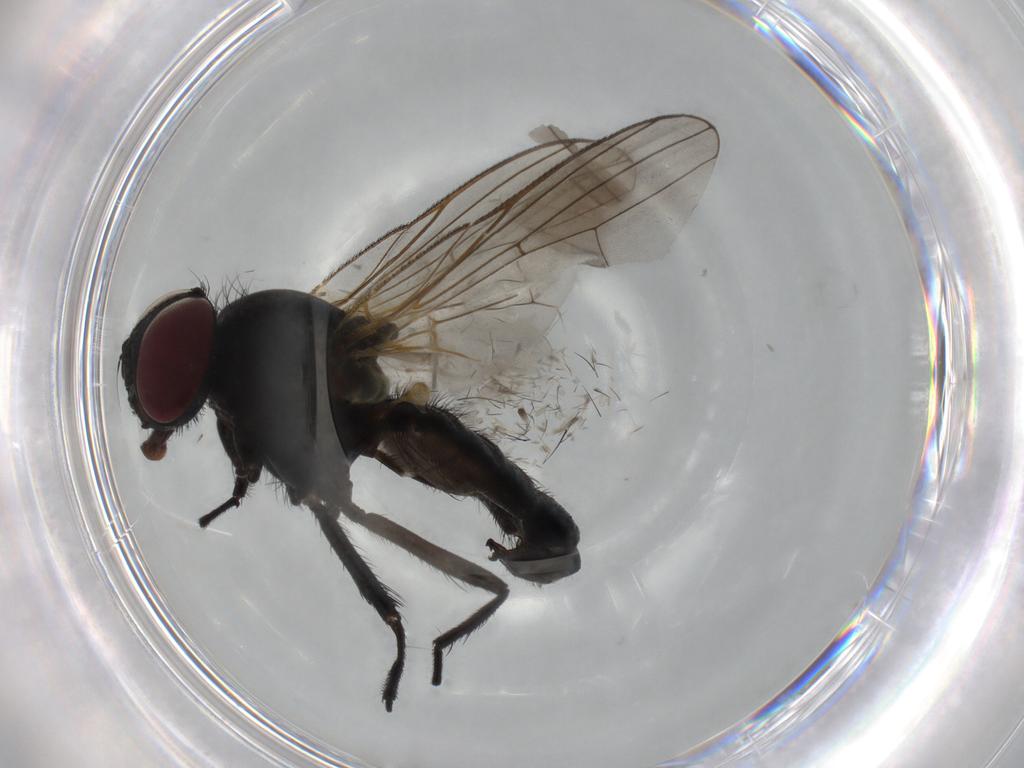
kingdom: Animalia
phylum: Arthropoda
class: Insecta
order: Diptera
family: Fannia
